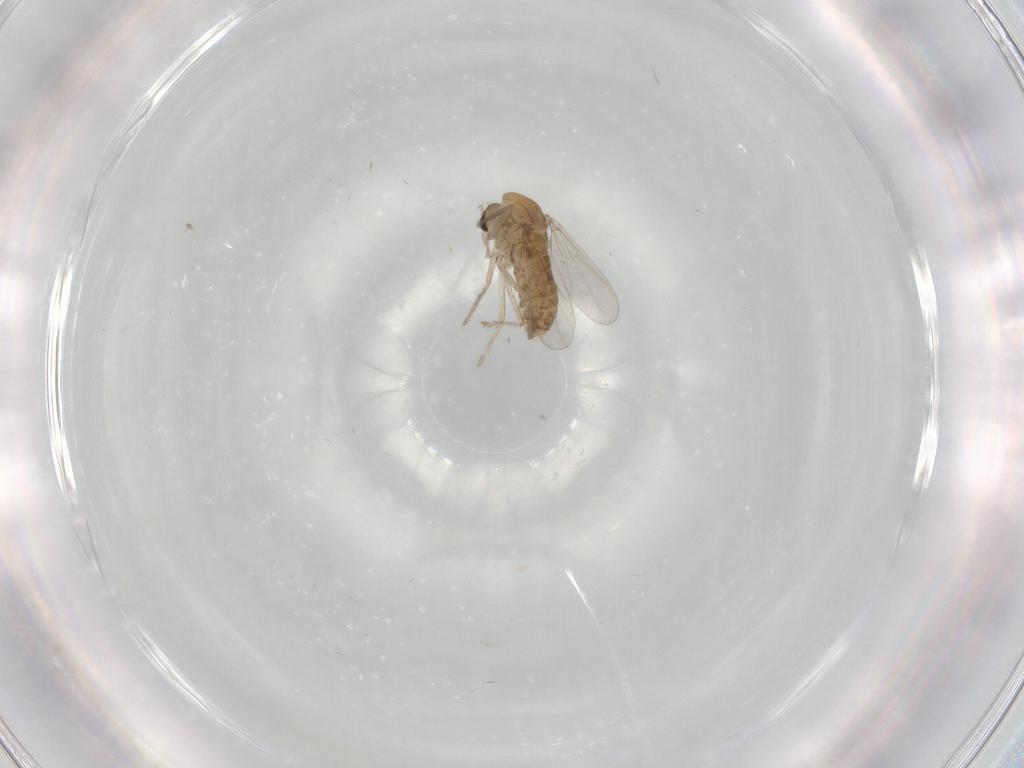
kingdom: Animalia
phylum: Arthropoda
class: Insecta
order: Diptera
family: Chironomidae
